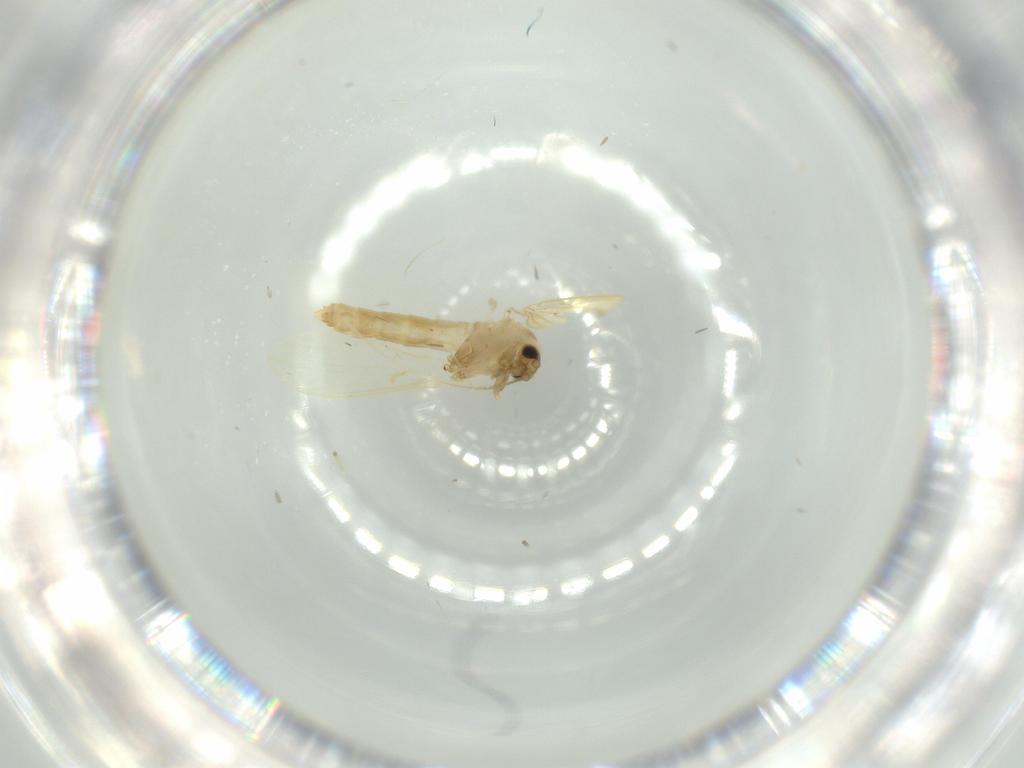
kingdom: Animalia
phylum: Arthropoda
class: Insecta
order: Diptera
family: Psychodidae
